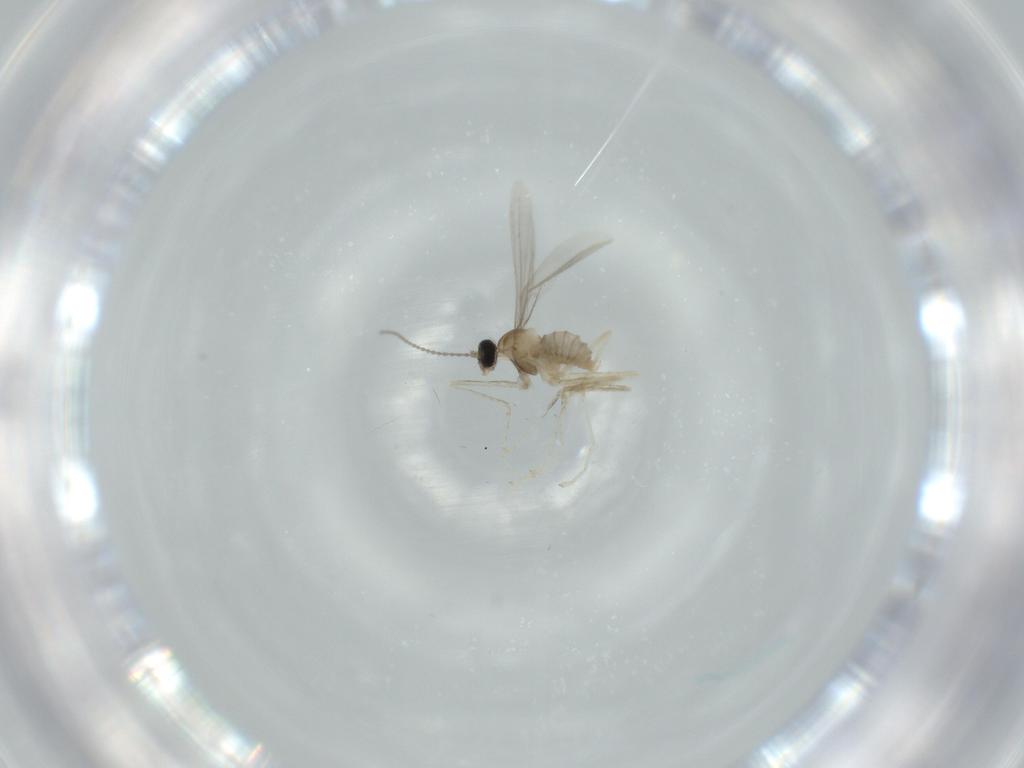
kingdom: Animalia
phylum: Arthropoda
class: Insecta
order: Diptera
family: Cecidomyiidae
